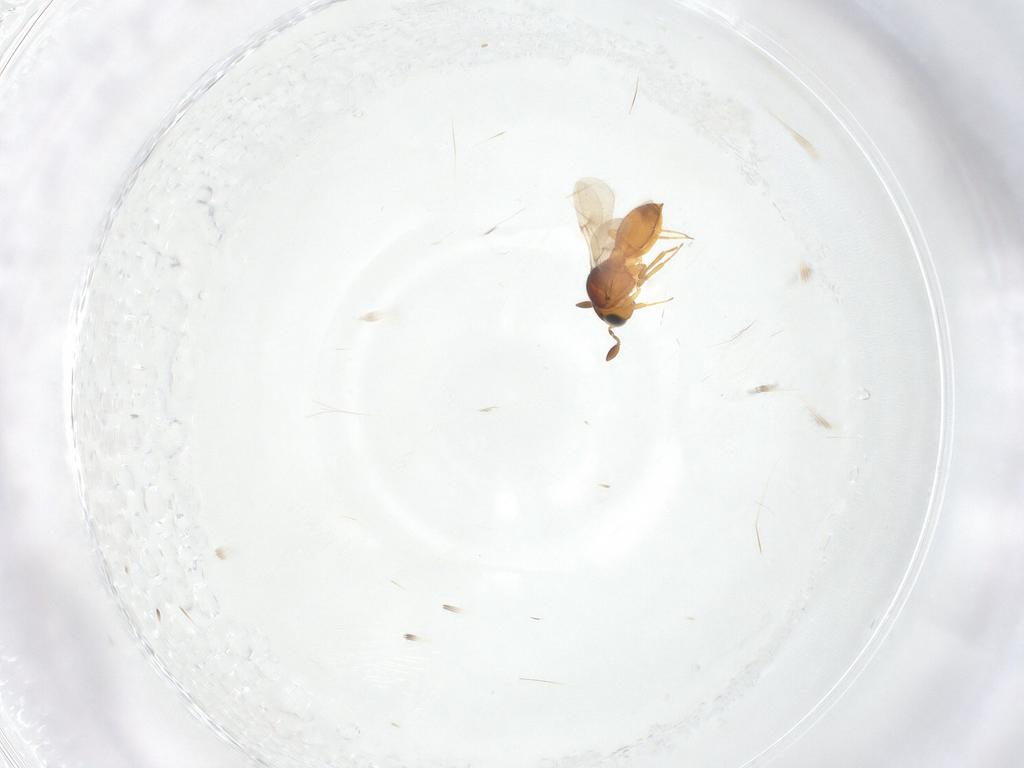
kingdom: Animalia
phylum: Arthropoda
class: Insecta
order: Hymenoptera
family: Scelionidae
